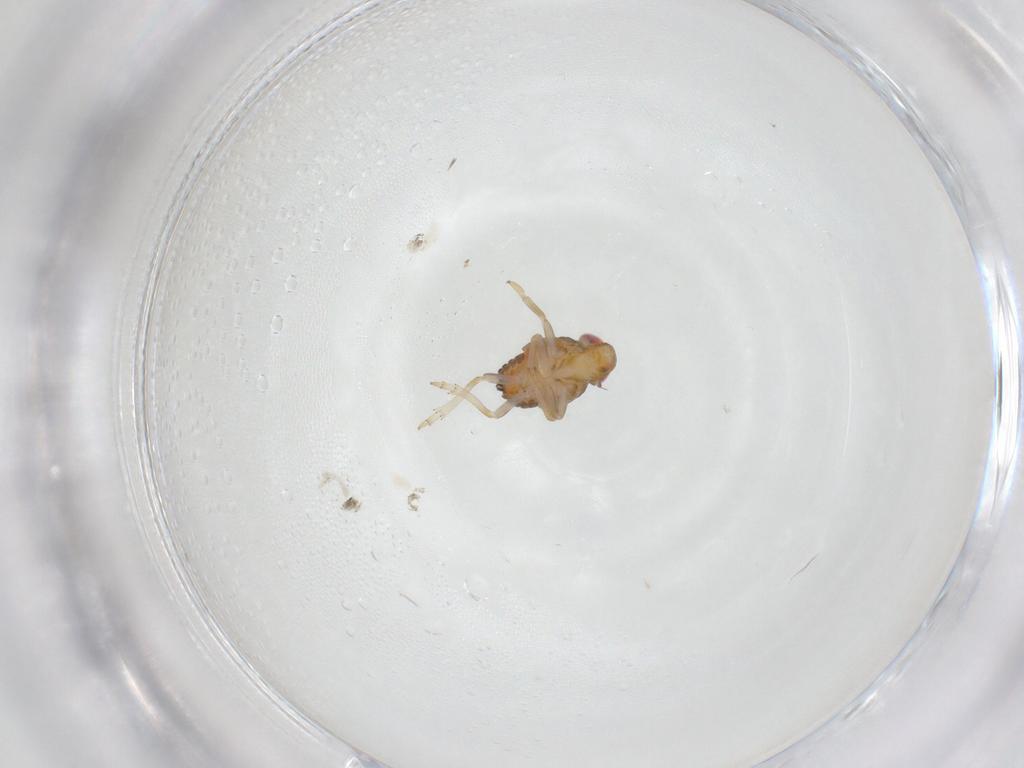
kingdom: Animalia
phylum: Arthropoda
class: Insecta
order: Hemiptera
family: Issidae
